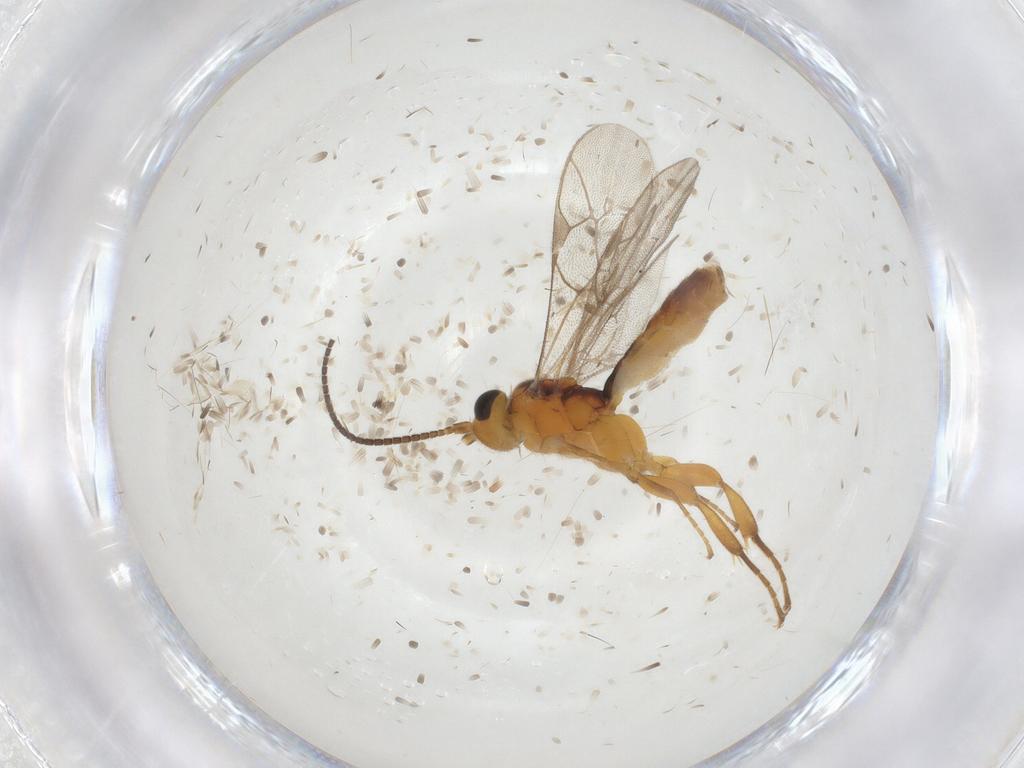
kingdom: Animalia
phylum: Arthropoda
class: Insecta
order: Hymenoptera
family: Ichneumonidae
